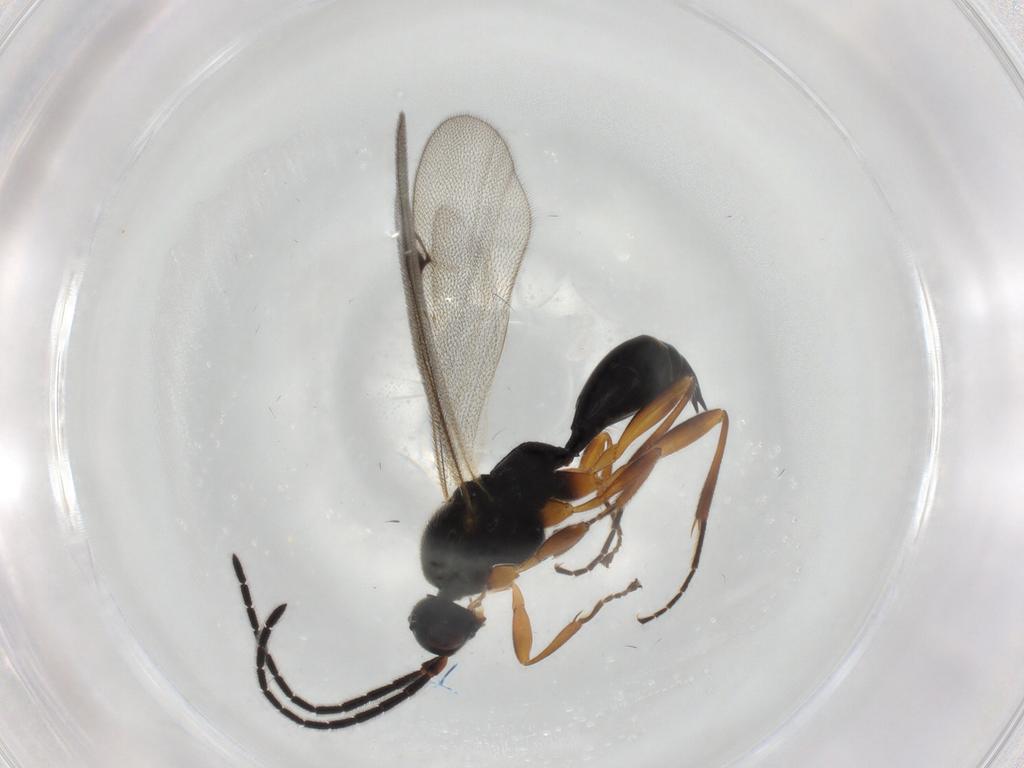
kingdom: Animalia
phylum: Arthropoda
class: Insecta
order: Hymenoptera
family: Proctotrupidae
